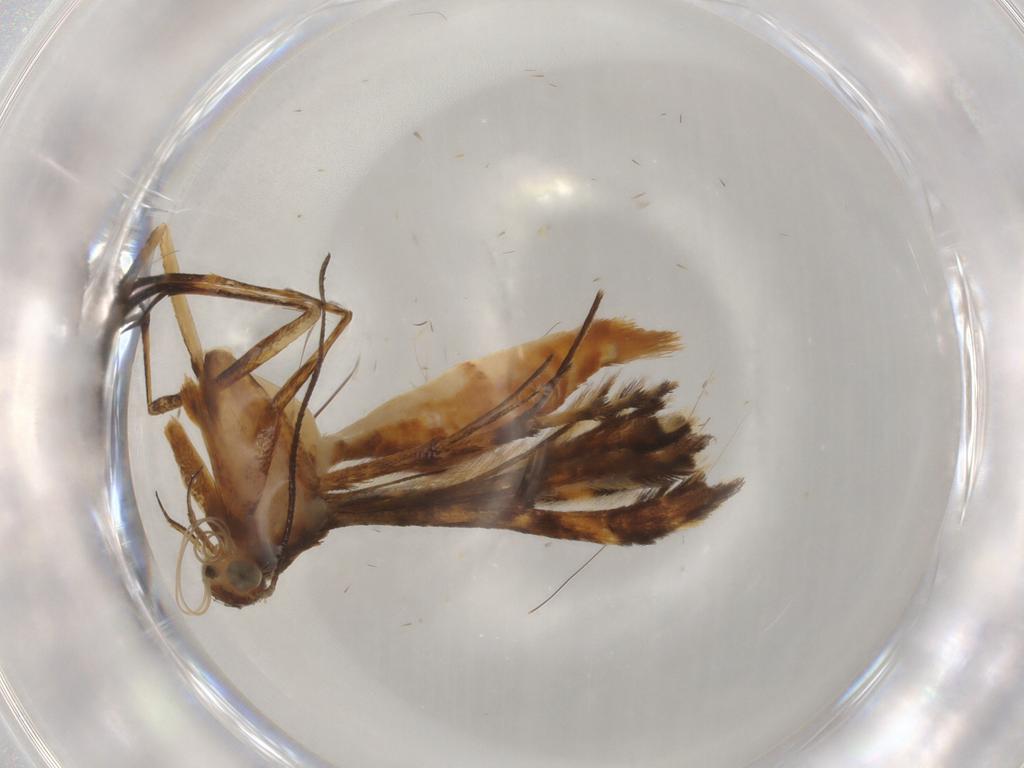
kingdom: Animalia
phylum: Arthropoda
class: Insecta
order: Lepidoptera
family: Pterophoridae
